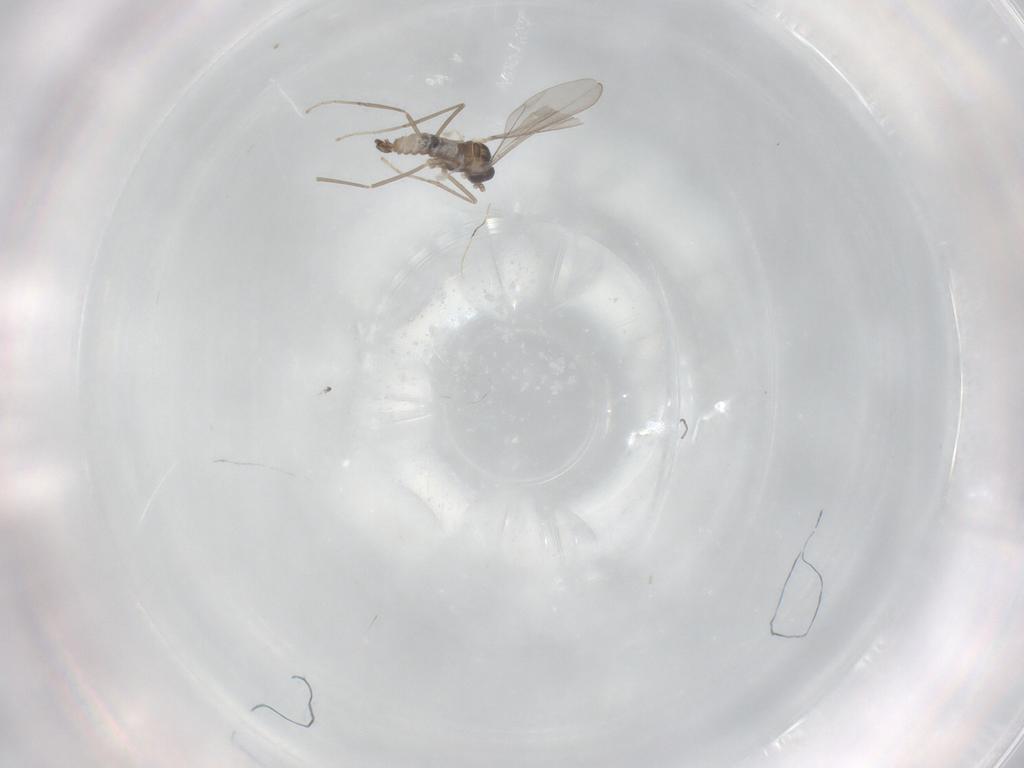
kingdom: Animalia
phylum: Arthropoda
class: Insecta
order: Diptera
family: Cecidomyiidae
